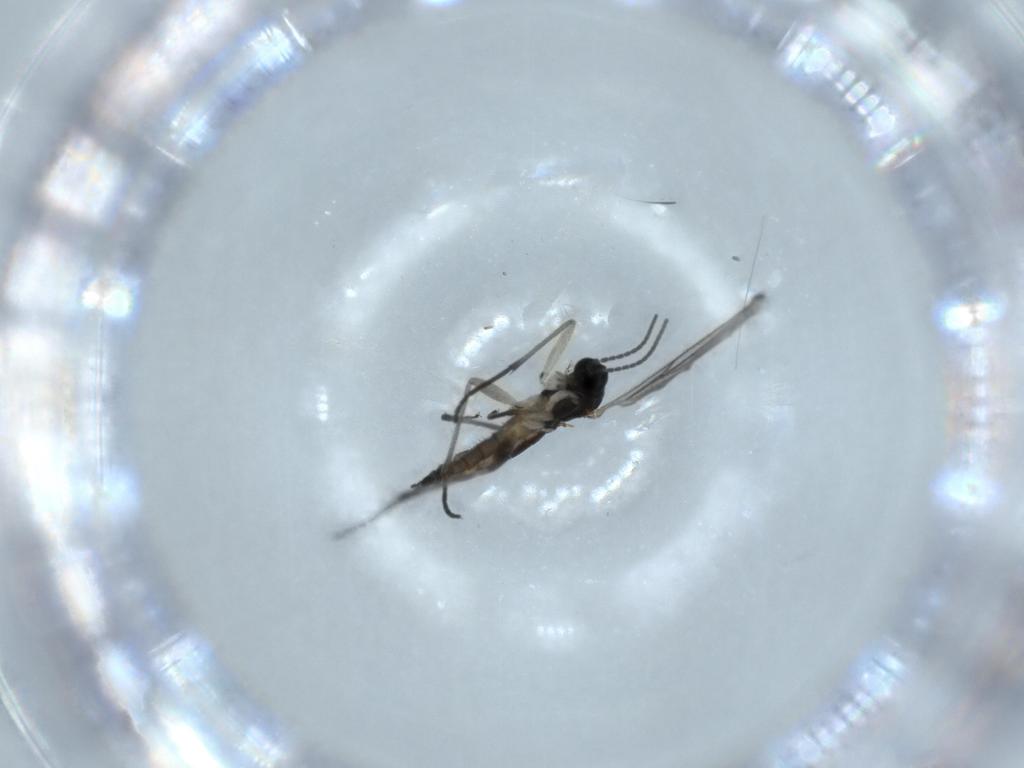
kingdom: Animalia
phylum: Arthropoda
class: Insecta
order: Diptera
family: Sciaridae
